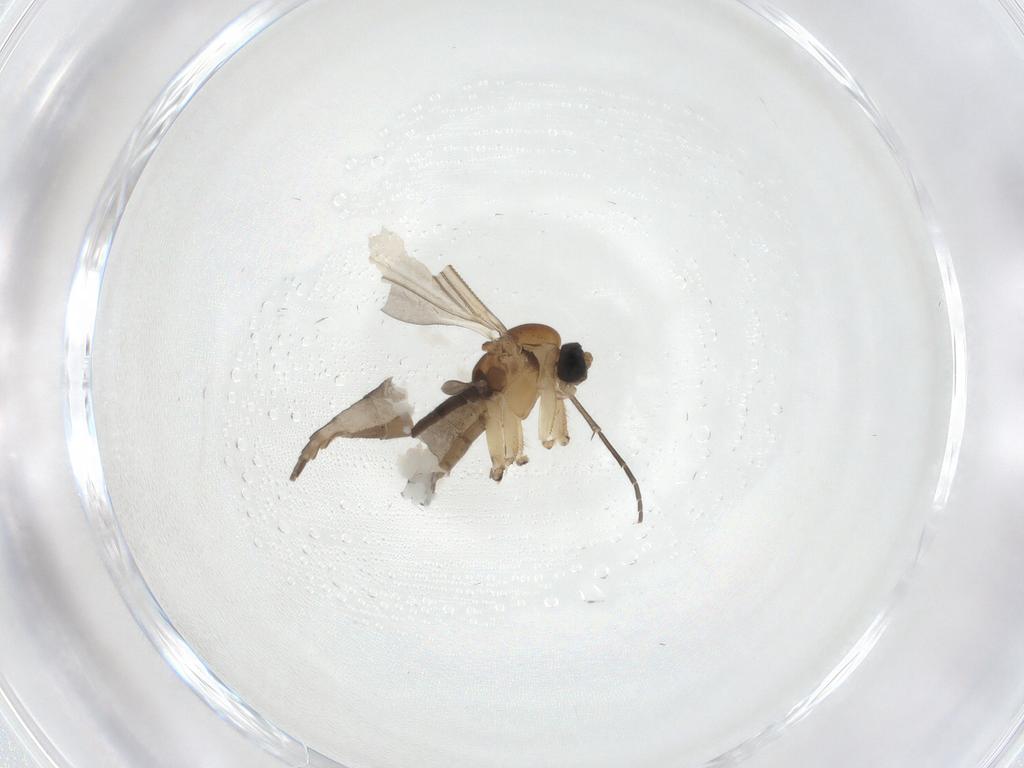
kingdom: Animalia
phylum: Arthropoda
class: Insecta
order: Diptera
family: Sciaridae
